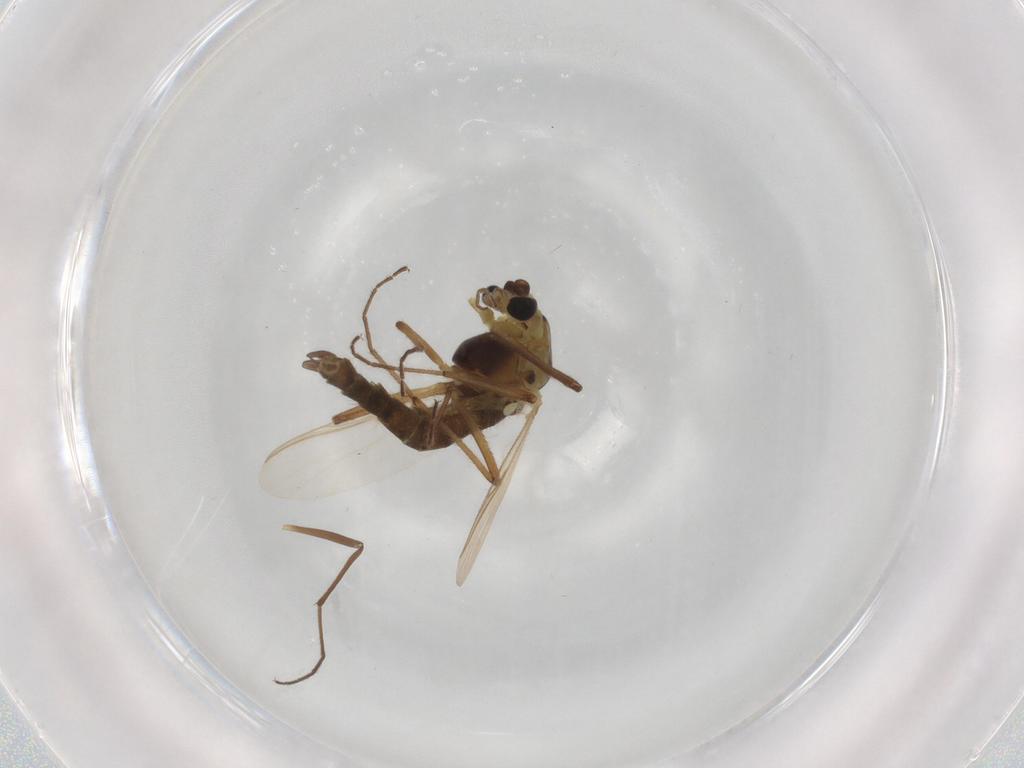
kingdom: Animalia
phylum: Arthropoda
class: Insecta
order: Diptera
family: Hybotidae
